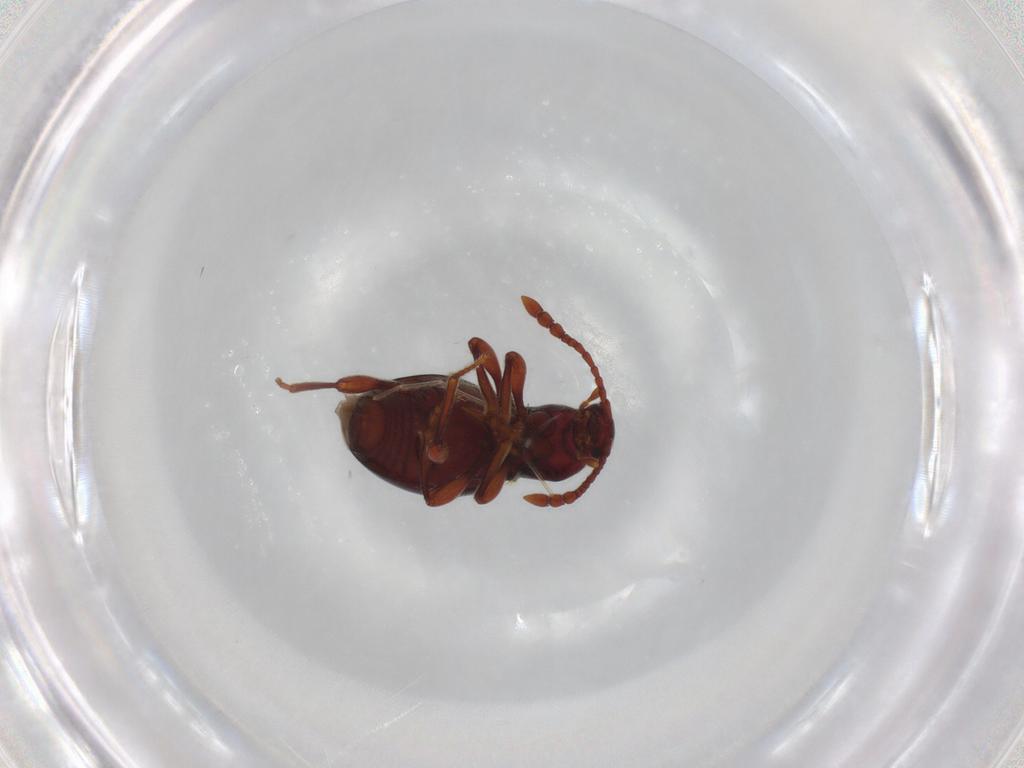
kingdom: Animalia
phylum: Arthropoda
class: Insecta
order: Coleoptera
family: Staphylinidae
